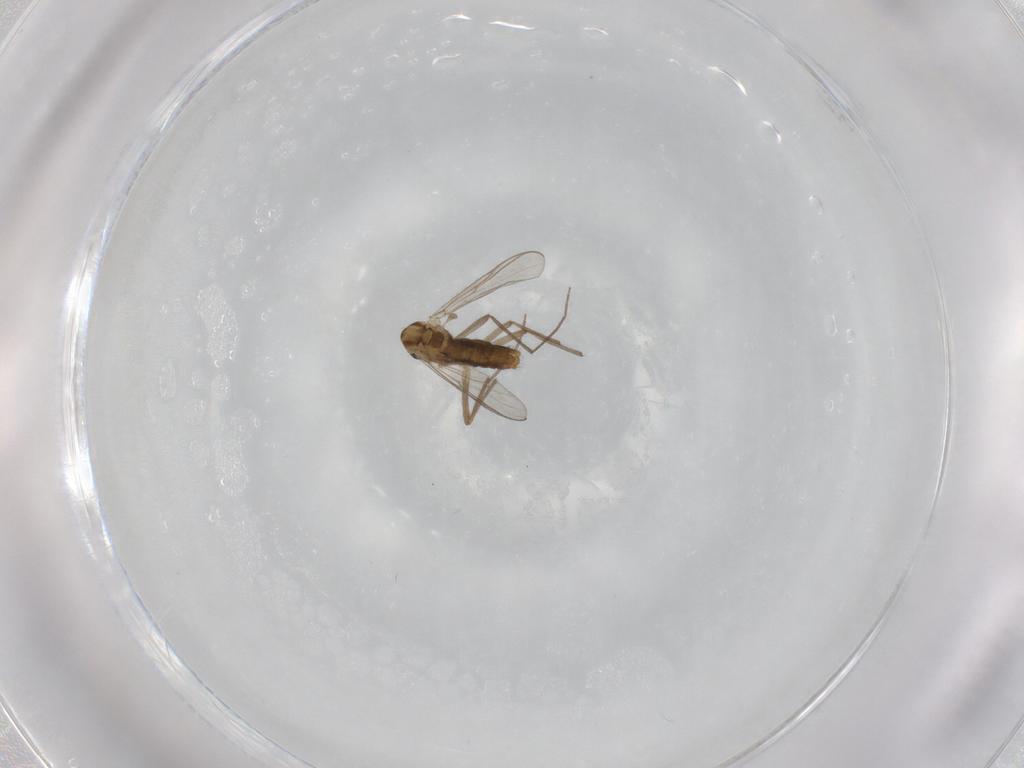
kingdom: Animalia
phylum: Arthropoda
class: Insecta
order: Diptera
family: Chironomidae
